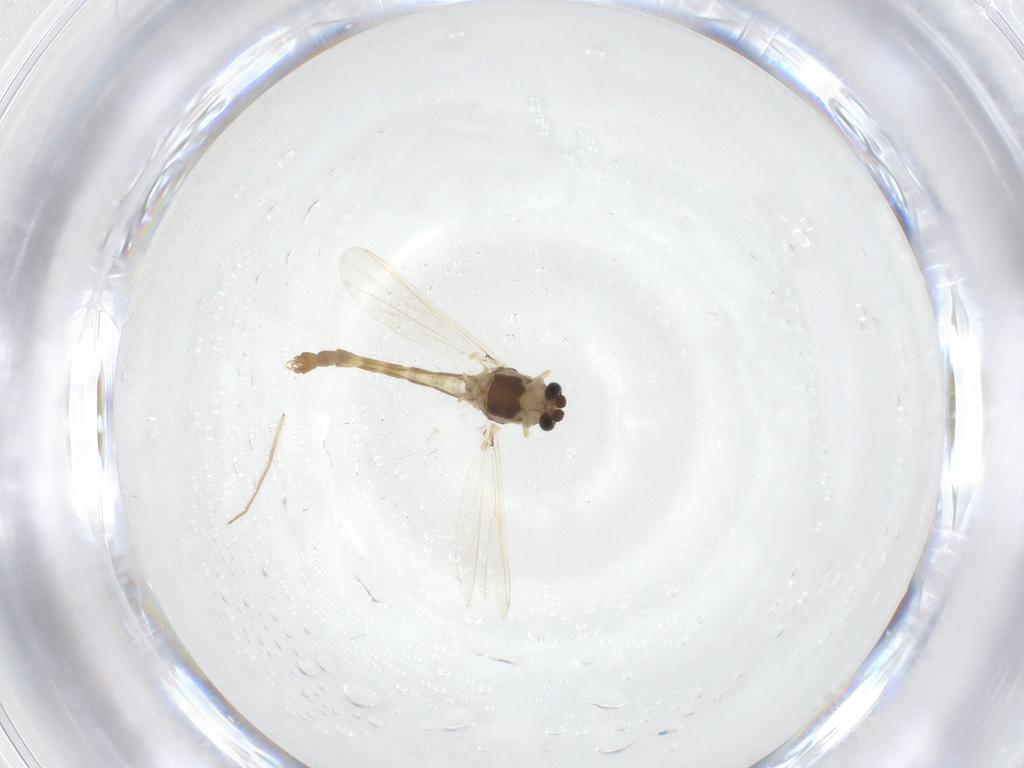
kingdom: Animalia
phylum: Arthropoda
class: Insecta
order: Diptera
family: Chironomidae
